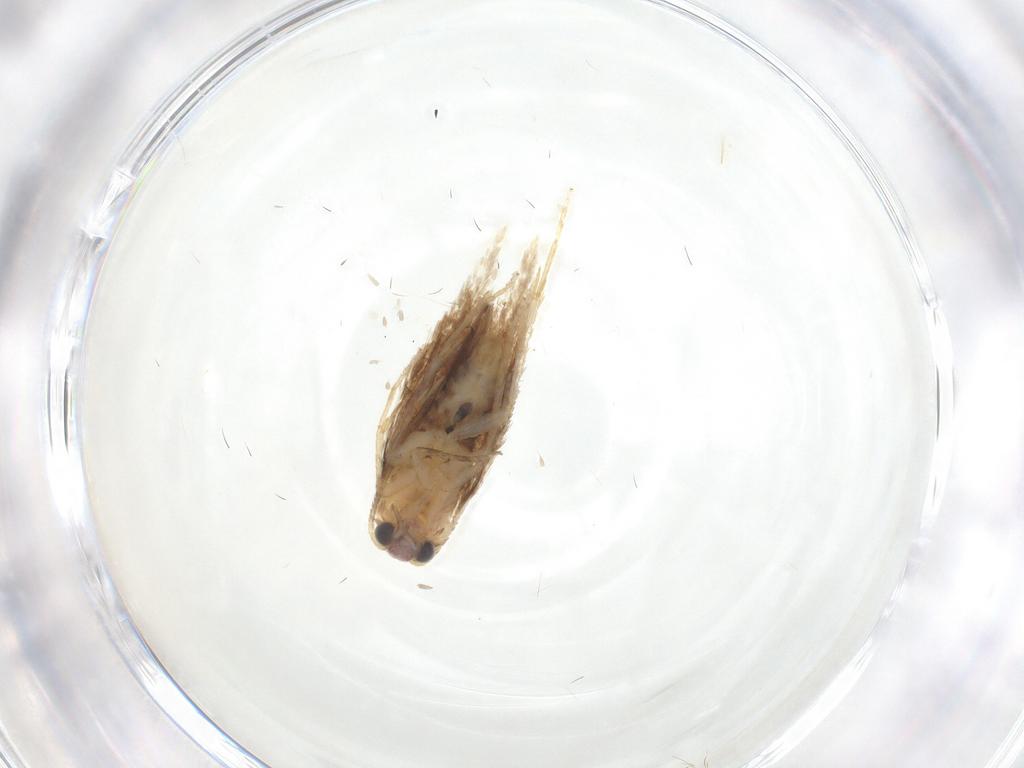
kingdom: Animalia
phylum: Arthropoda
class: Insecta
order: Lepidoptera
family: Nepticulidae
